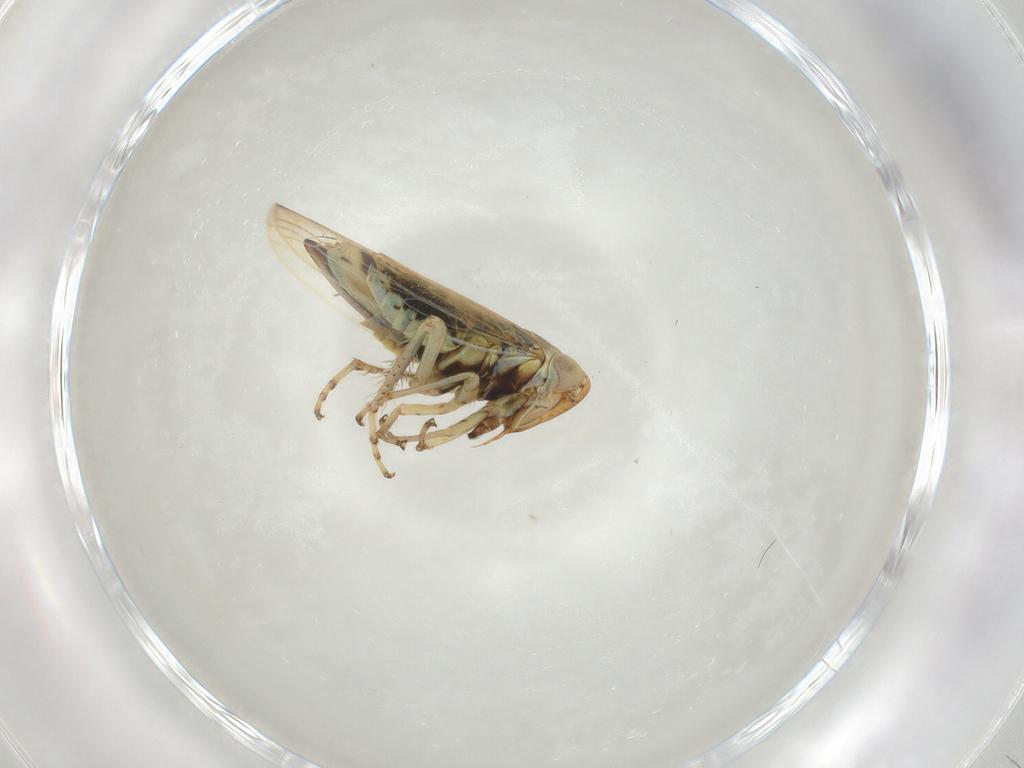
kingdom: Animalia
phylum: Arthropoda
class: Insecta
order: Hemiptera
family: Cicadellidae
